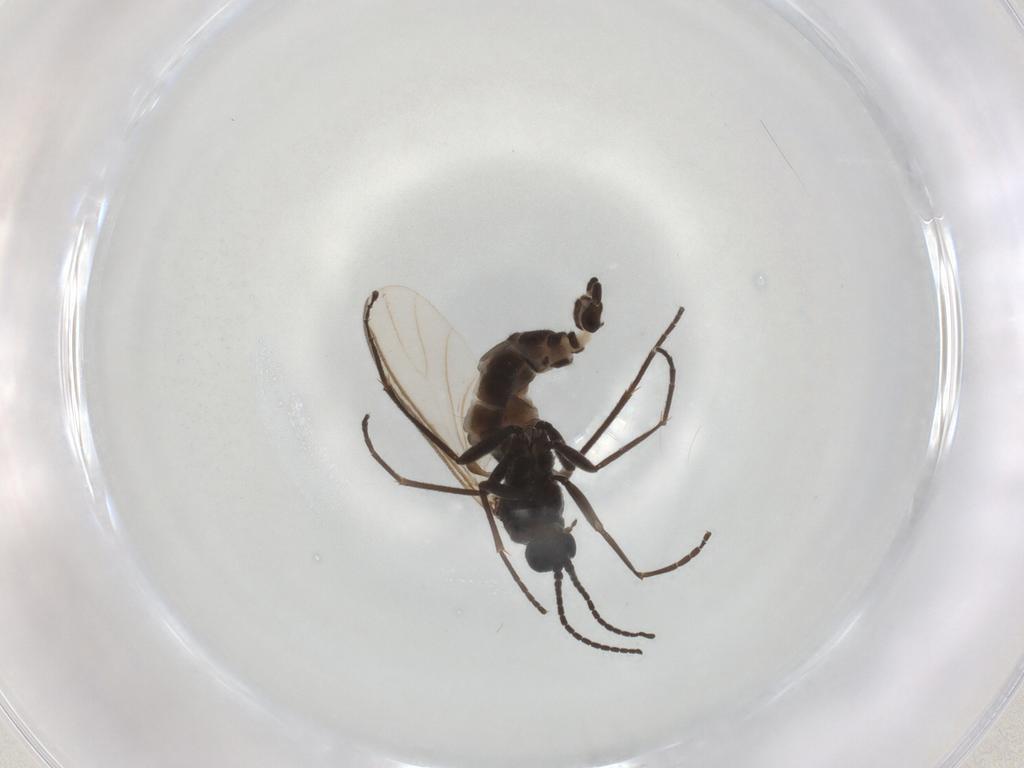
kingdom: Animalia
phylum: Arthropoda
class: Insecta
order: Diptera
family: Sciaridae
